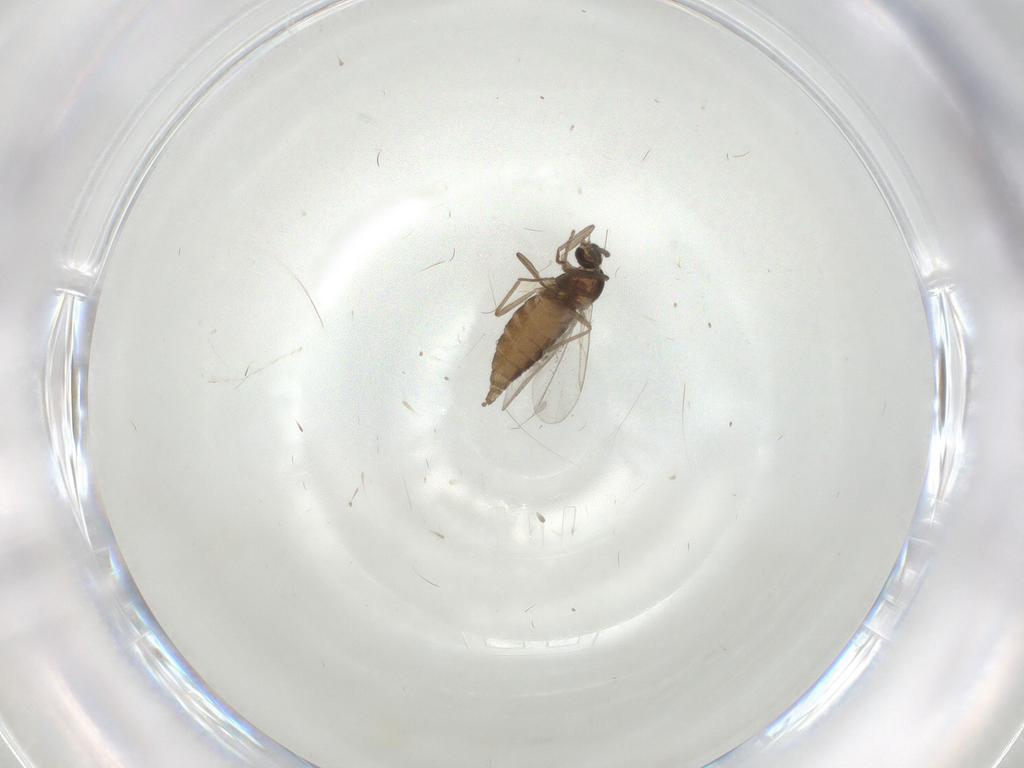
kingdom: Animalia
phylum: Arthropoda
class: Insecta
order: Diptera
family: Cecidomyiidae
